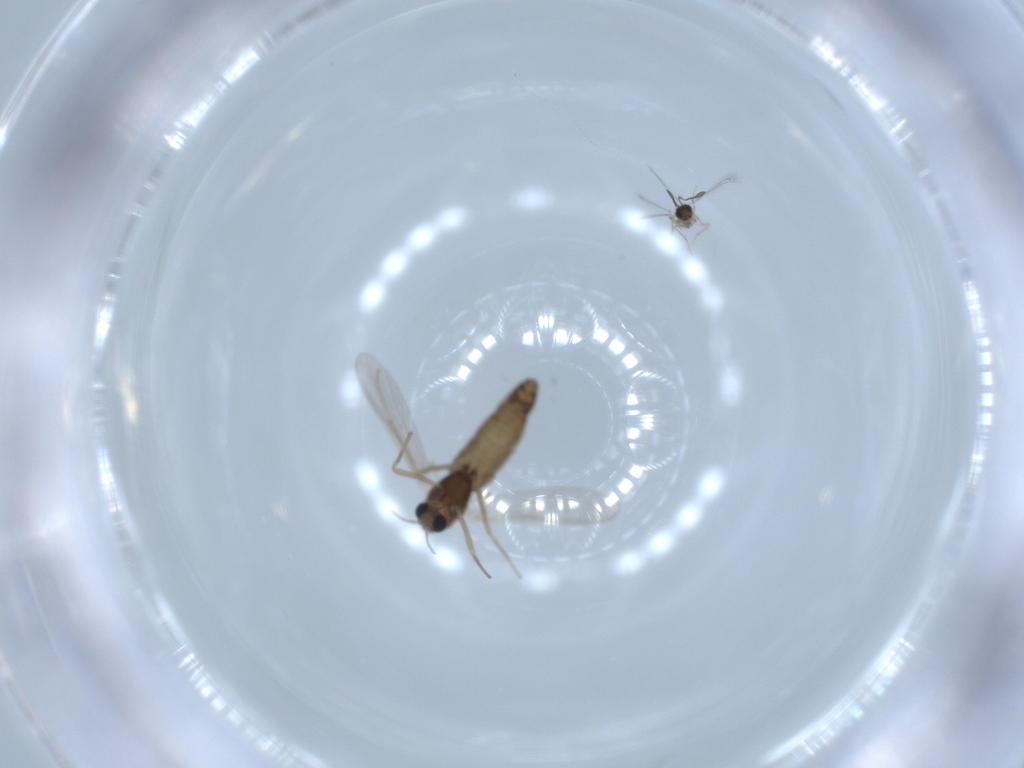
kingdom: Animalia
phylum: Arthropoda
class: Insecta
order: Diptera
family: Chironomidae
